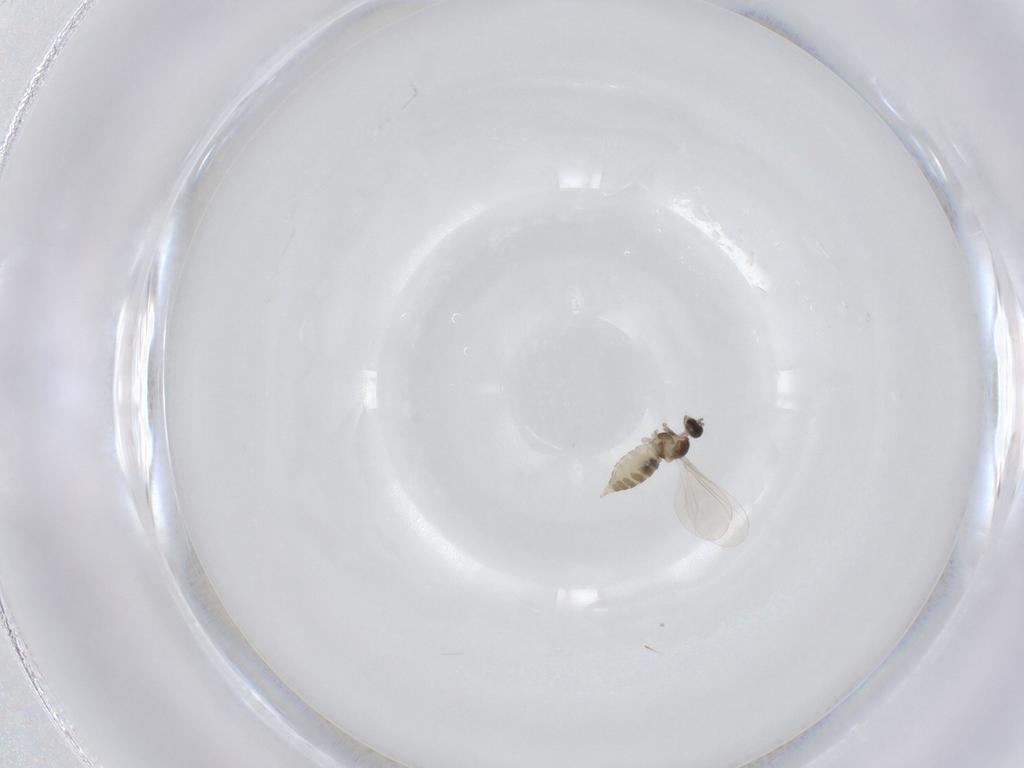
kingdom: Animalia
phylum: Arthropoda
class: Insecta
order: Diptera
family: Cecidomyiidae
